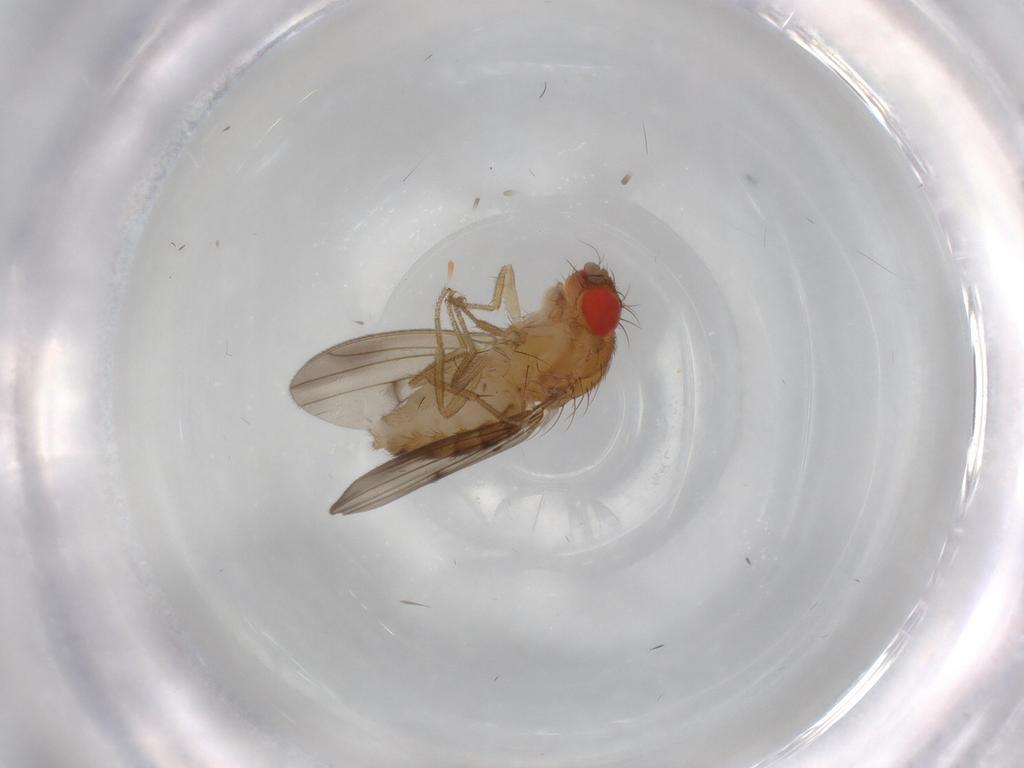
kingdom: Animalia
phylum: Arthropoda
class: Insecta
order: Diptera
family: Drosophilidae
